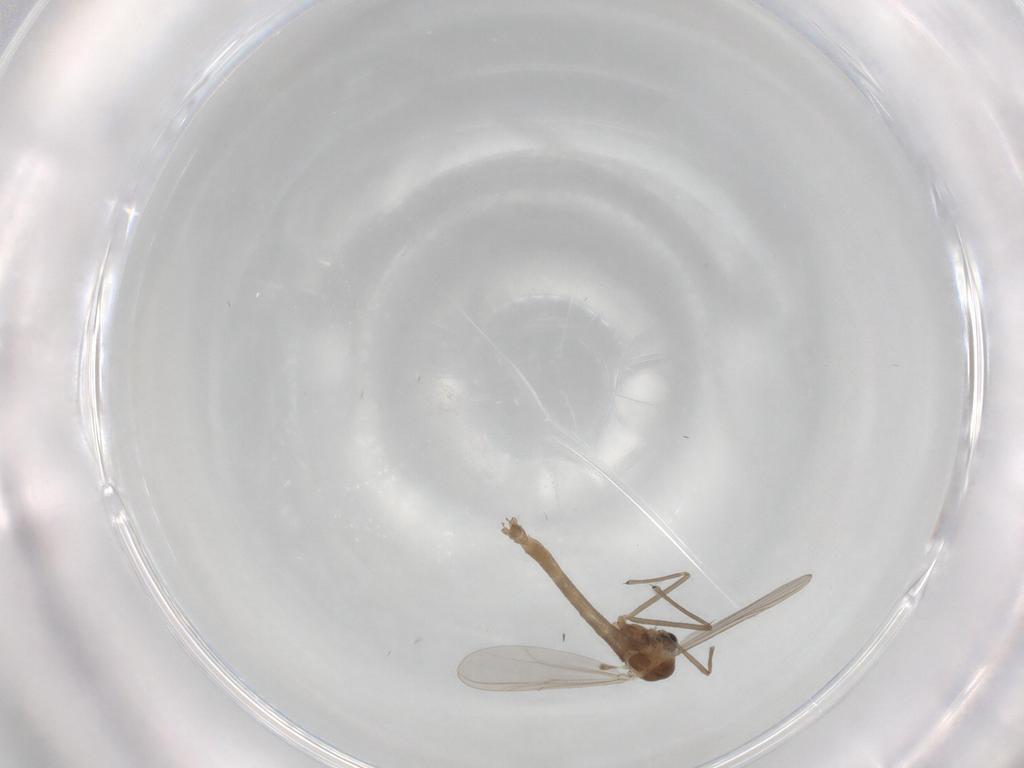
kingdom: Animalia
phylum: Arthropoda
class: Insecta
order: Diptera
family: Chironomidae
